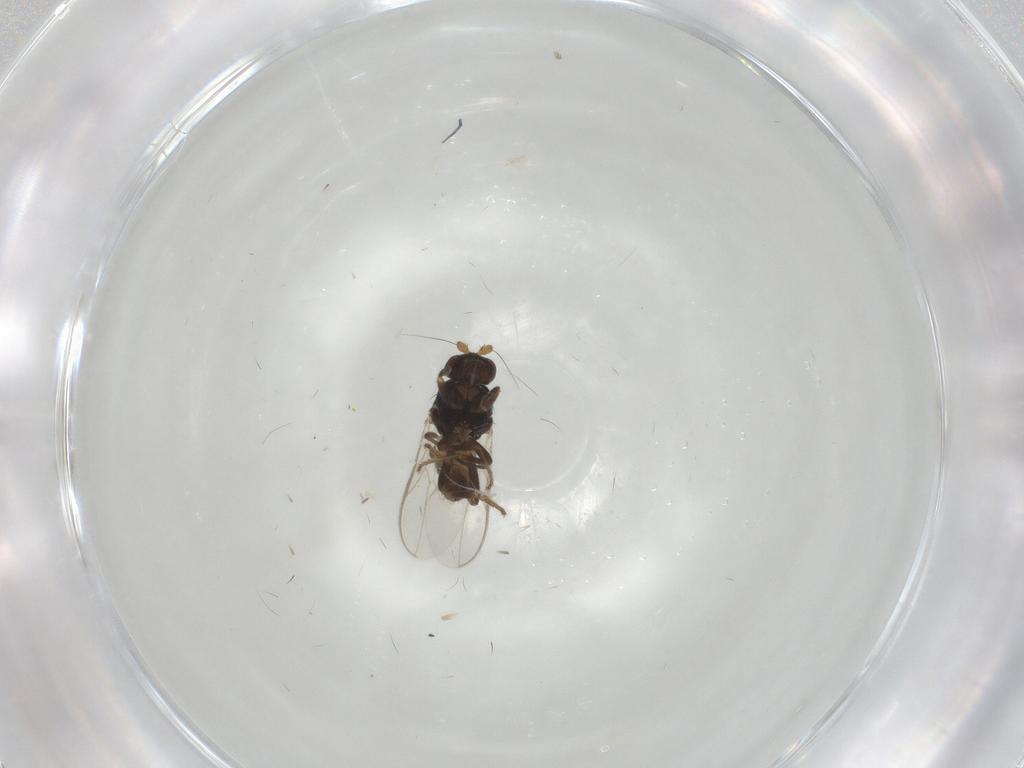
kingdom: Animalia
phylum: Arthropoda
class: Insecta
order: Diptera
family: Sphaeroceridae
